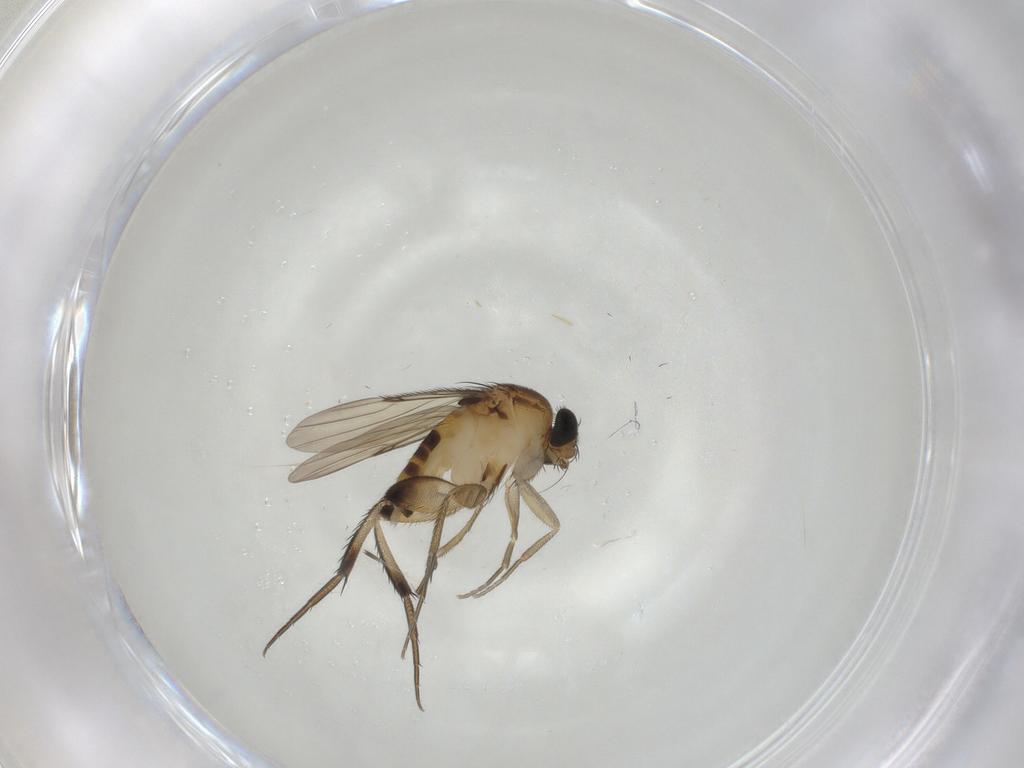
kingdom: Animalia
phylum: Arthropoda
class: Insecta
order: Diptera
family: Phoridae
